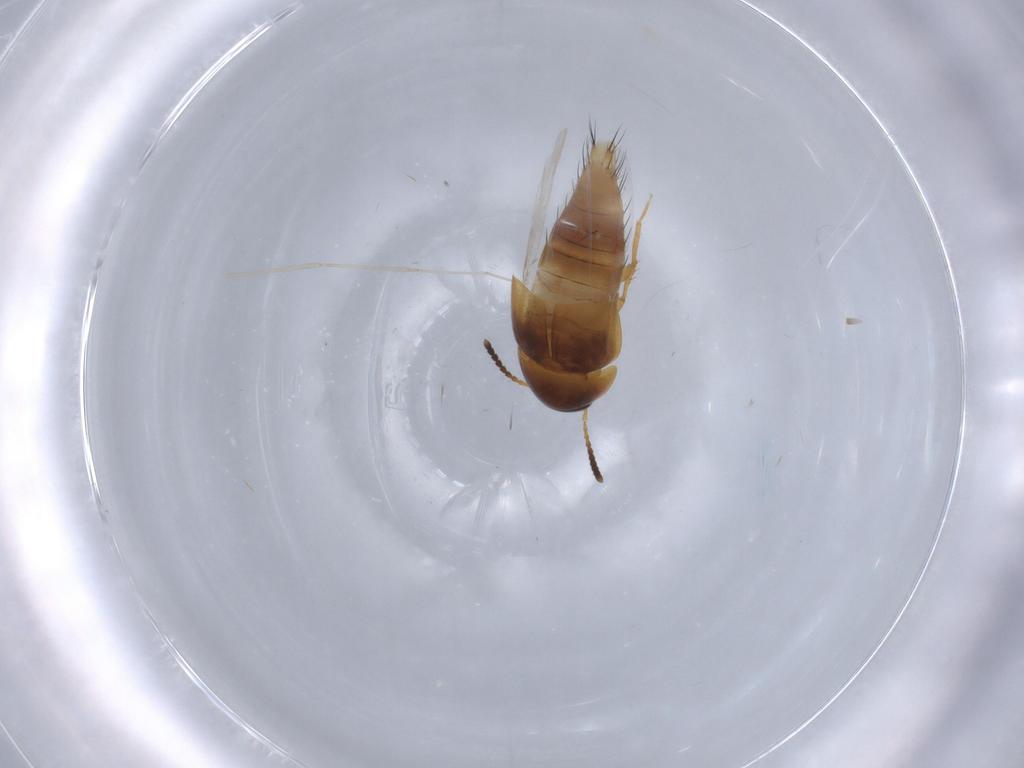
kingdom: Animalia
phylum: Arthropoda
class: Insecta
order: Coleoptera
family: Staphylinidae
